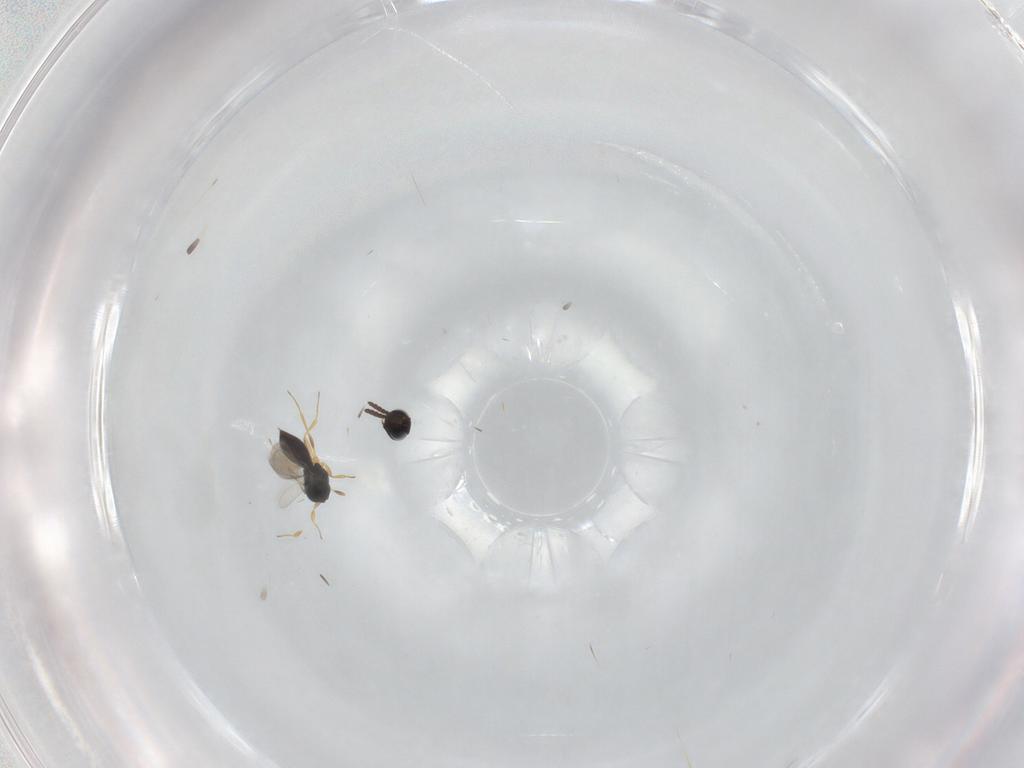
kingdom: Animalia
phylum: Arthropoda
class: Insecta
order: Hymenoptera
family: Scelionidae
